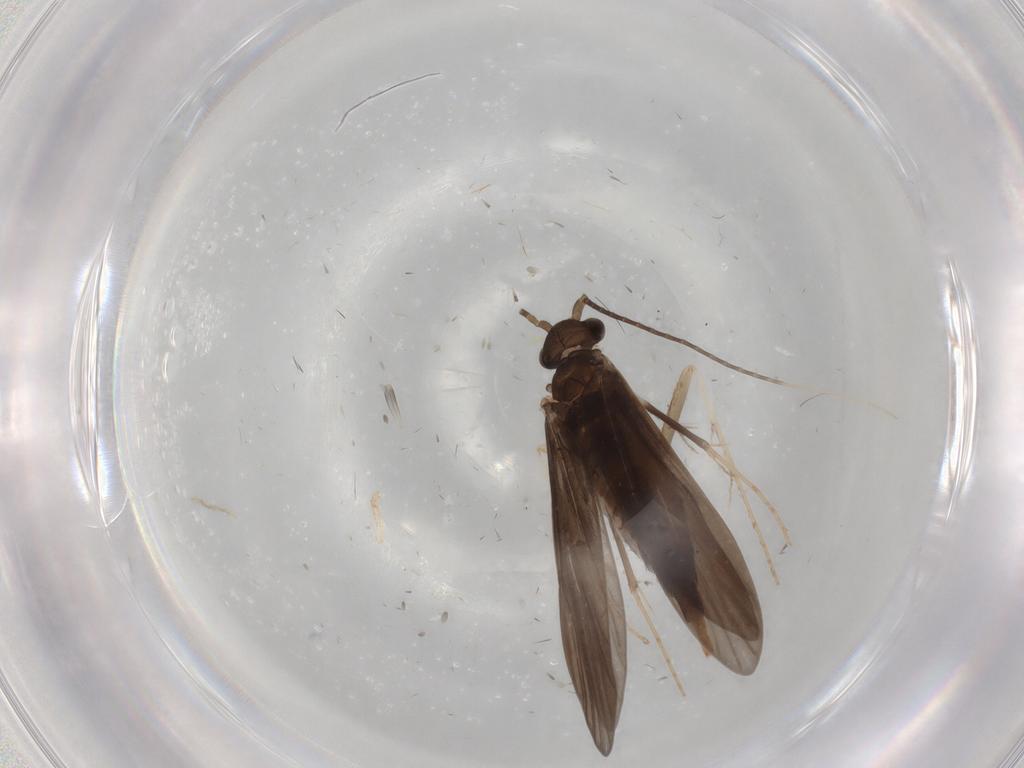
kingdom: Animalia
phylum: Arthropoda
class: Insecta
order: Trichoptera
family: Xiphocentronidae
